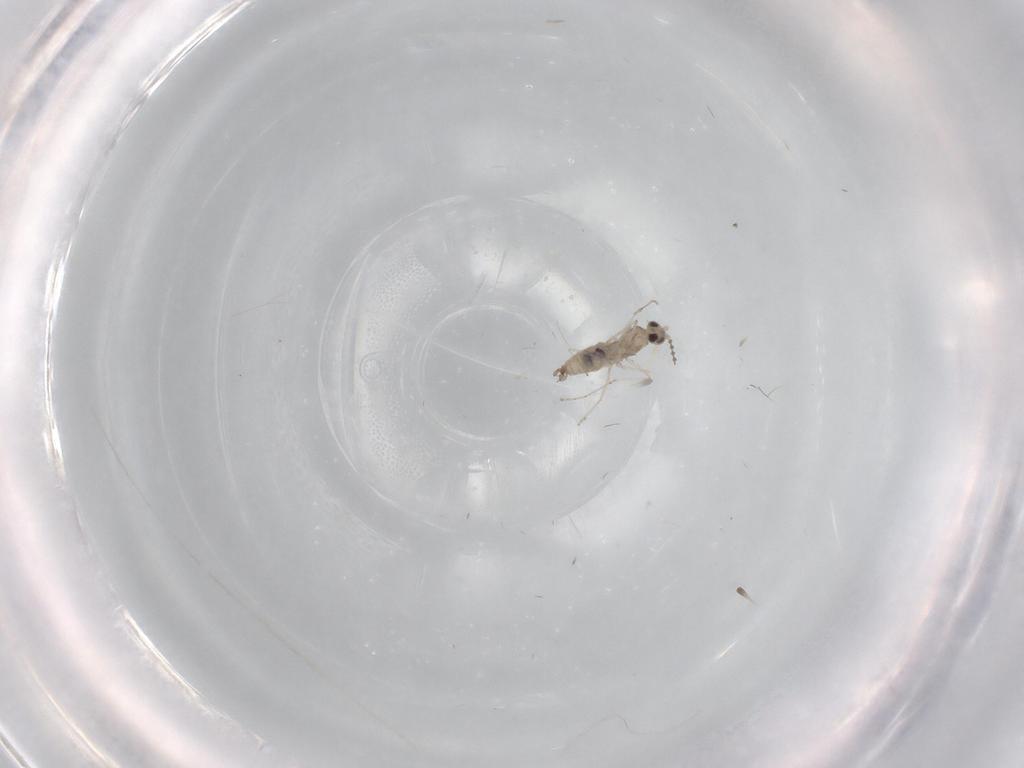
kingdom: Animalia
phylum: Arthropoda
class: Insecta
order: Diptera
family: Cecidomyiidae
